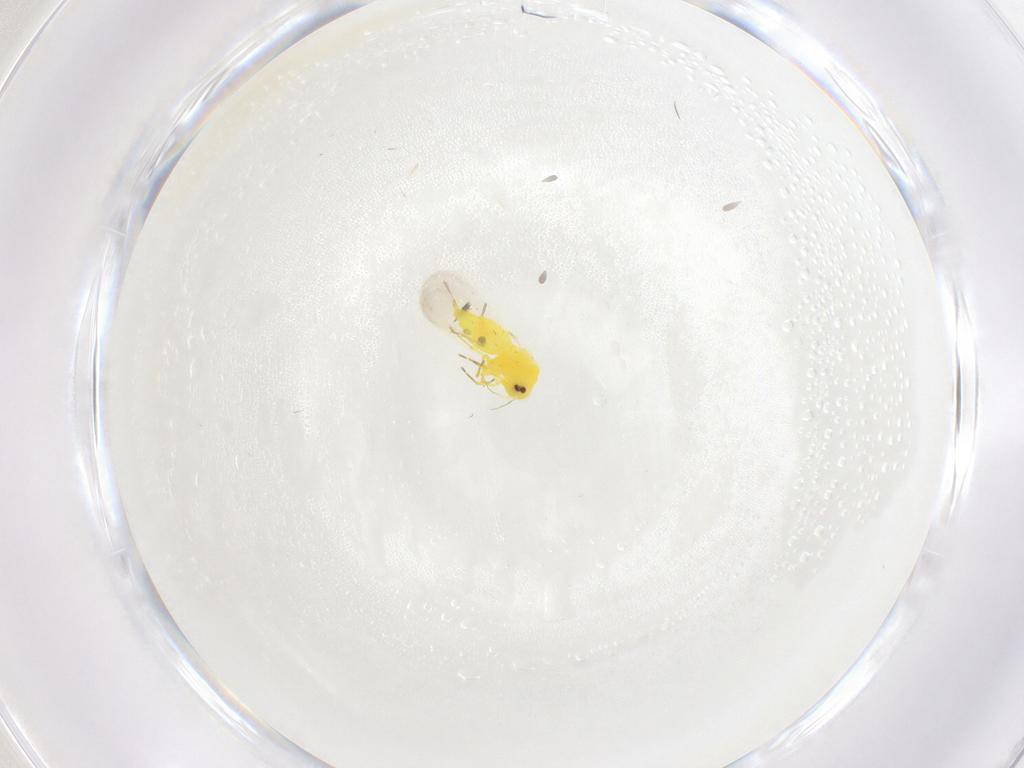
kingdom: Animalia
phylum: Arthropoda
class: Insecta
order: Hemiptera
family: Aleyrodidae
